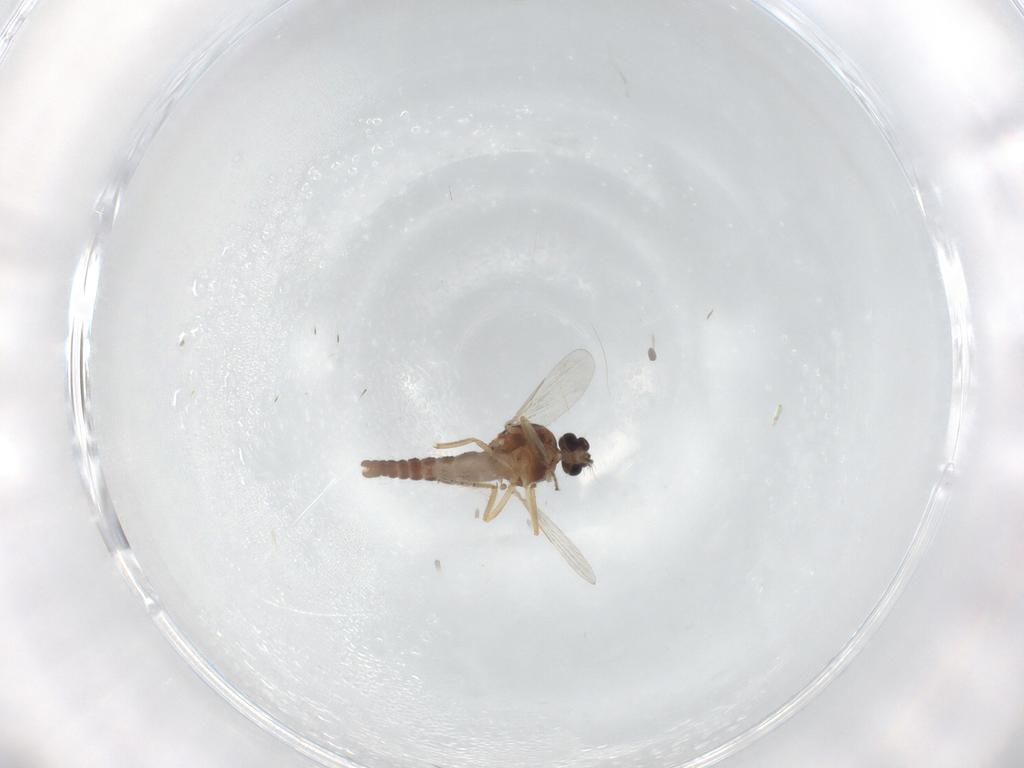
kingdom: Animalia
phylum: Arthropoda
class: Insecta
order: Diptera
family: Ceratopogonidae
